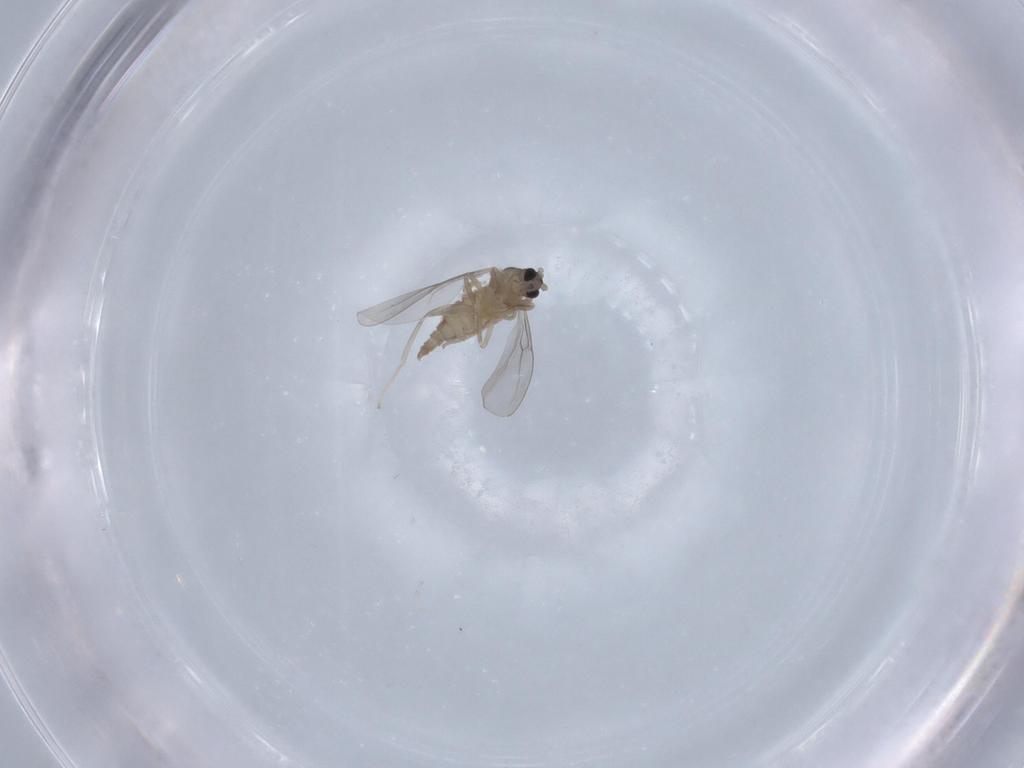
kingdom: Animalia
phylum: Arthropoda
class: Insecta
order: Diptera
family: Cecidomyiidae
